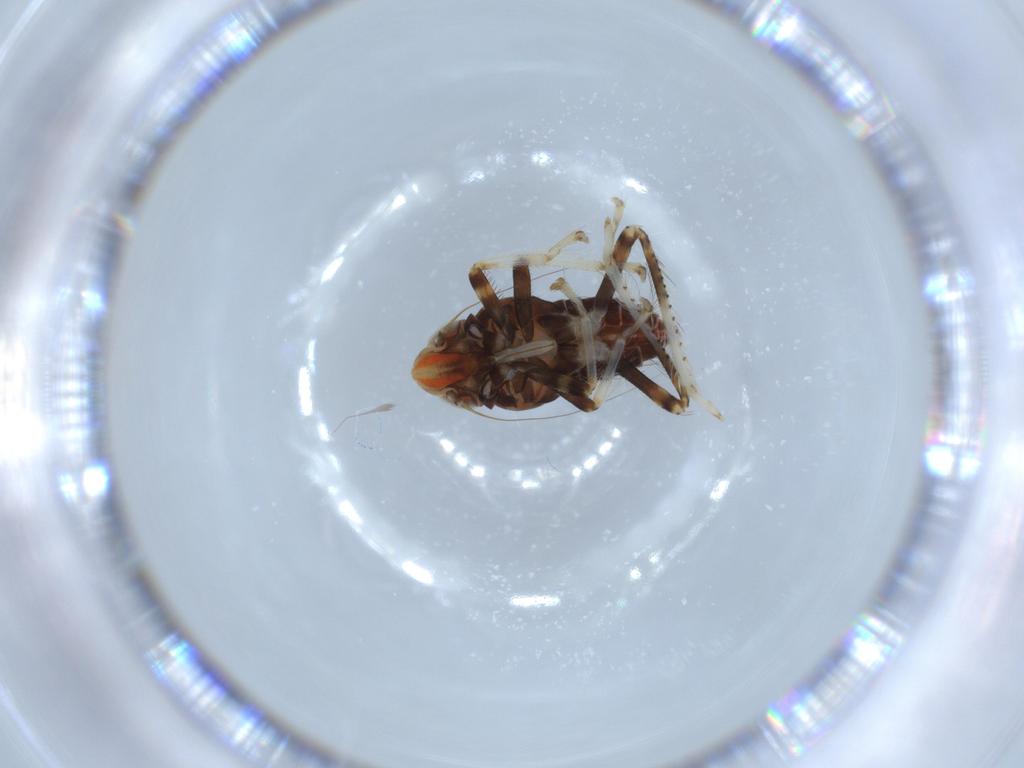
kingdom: Animalia
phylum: Arthropoda
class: Insecta
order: Hemiptera
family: Cicadellidae
